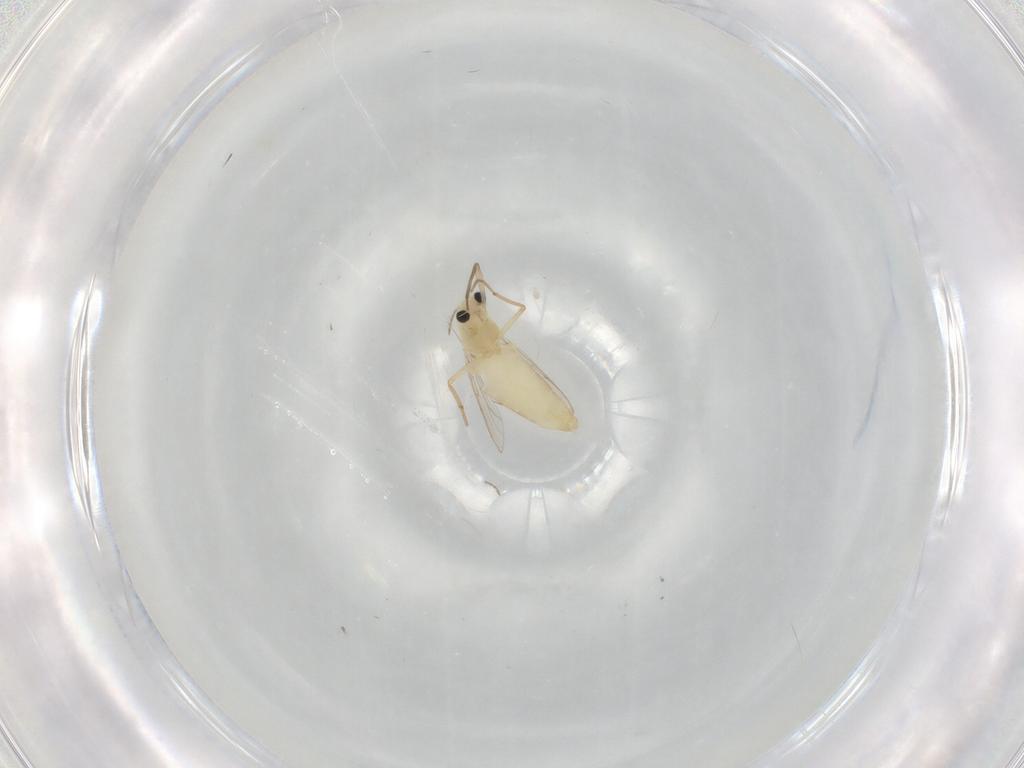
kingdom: Animalia
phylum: Arthropoda
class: Insecta
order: Diptera
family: Chironomidae
